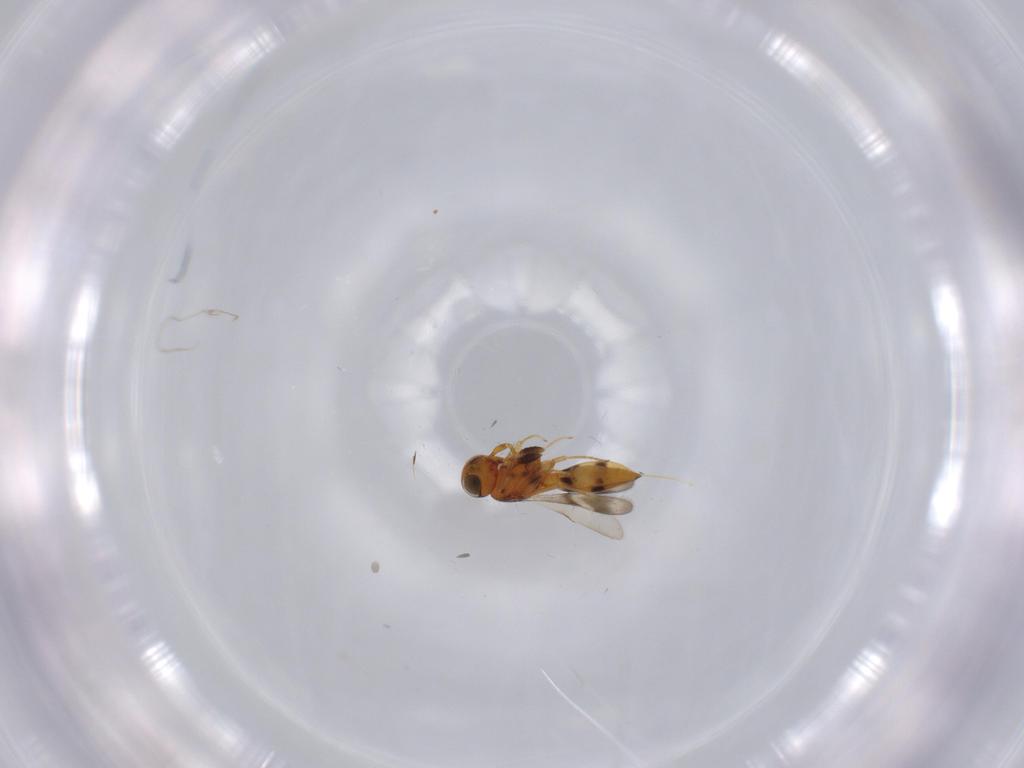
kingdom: Animalia
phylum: Arthropoda
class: Insecta
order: Hymenoptera
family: Scelionidae
